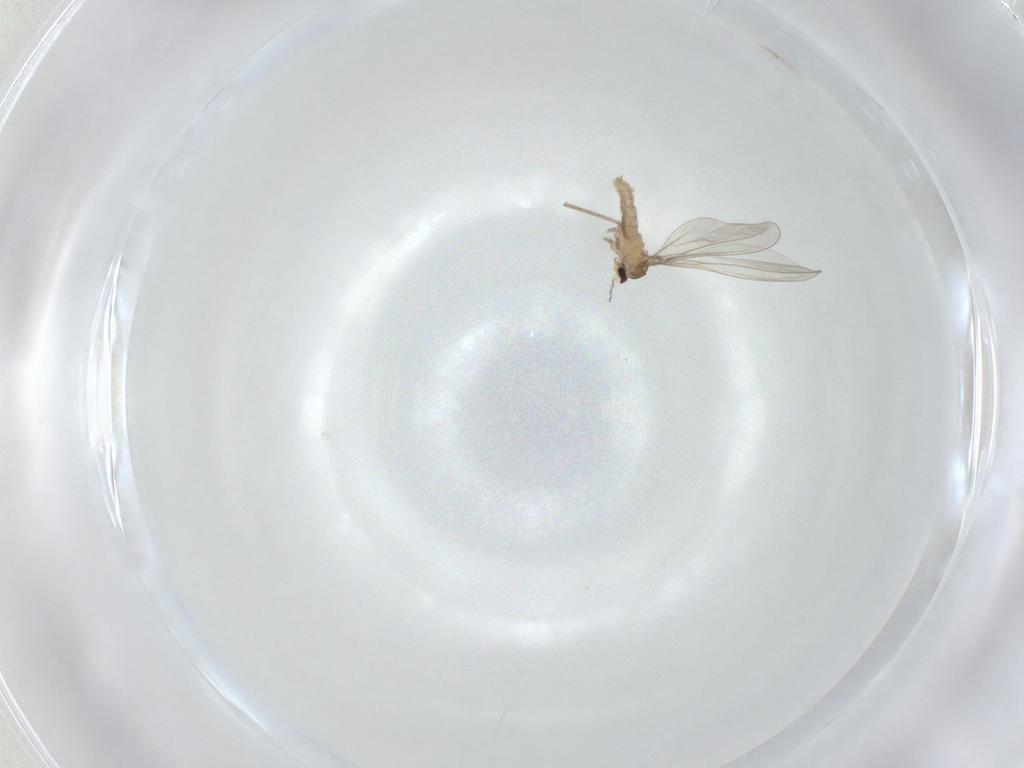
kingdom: Animalia
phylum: Arthropoda
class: Insecta
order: Diptera
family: Cecidomyiidae
